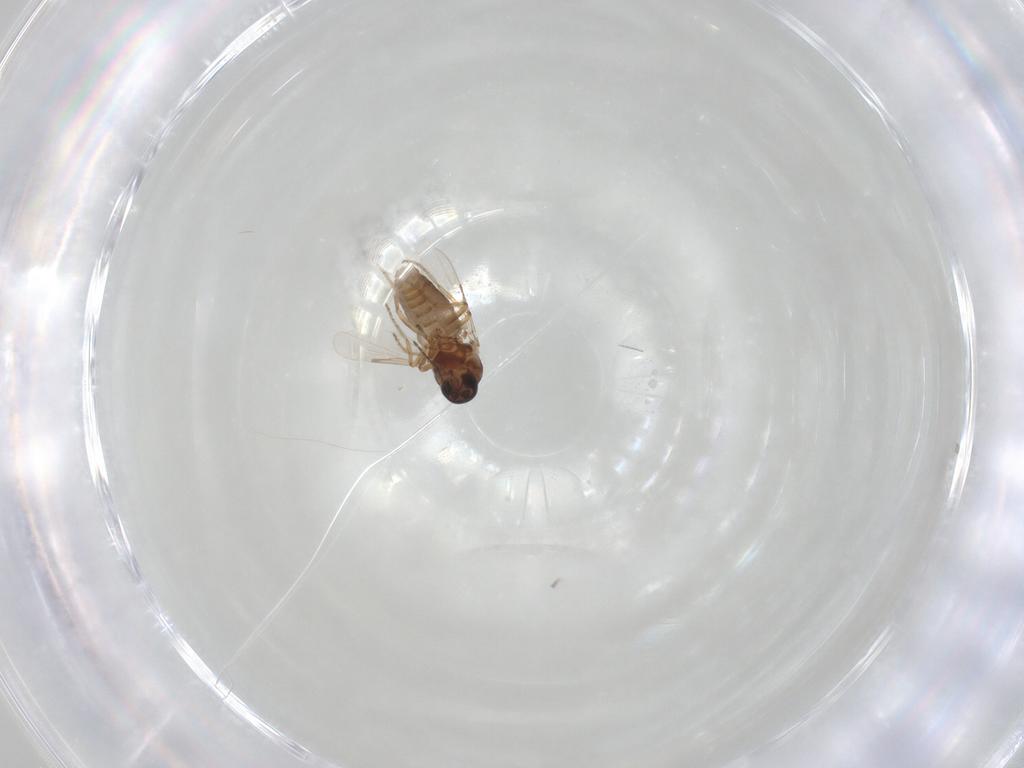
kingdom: Animalia
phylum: Arthropoda
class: Insecta
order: Diptera
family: Ceratopogonidae
